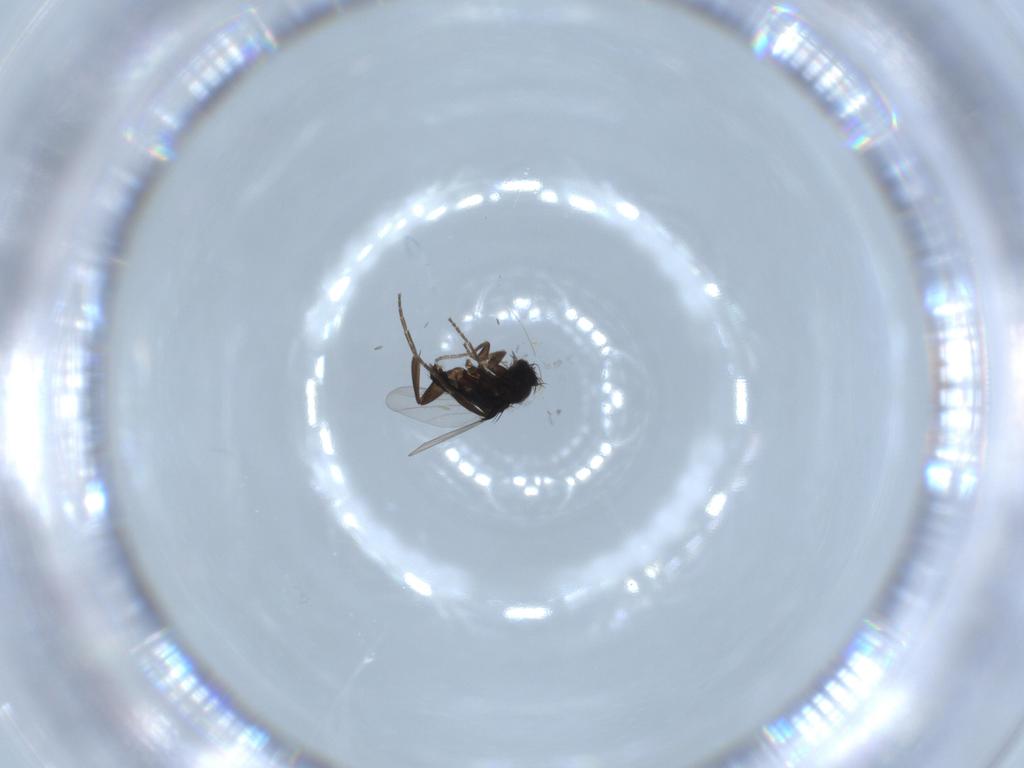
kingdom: Animalia
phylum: Arthropoda
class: Insecta
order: Diptera
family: Phoridae
